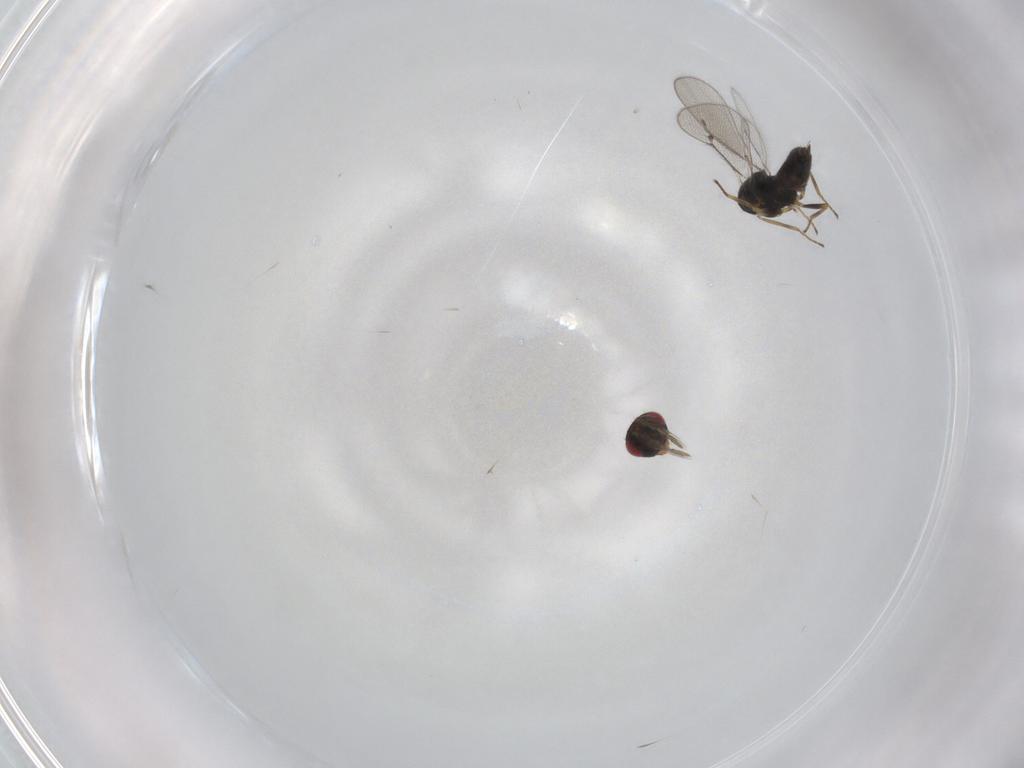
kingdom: Animalia
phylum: Arthropoda
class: Insecta
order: Hymenoptera
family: Eulophidae
